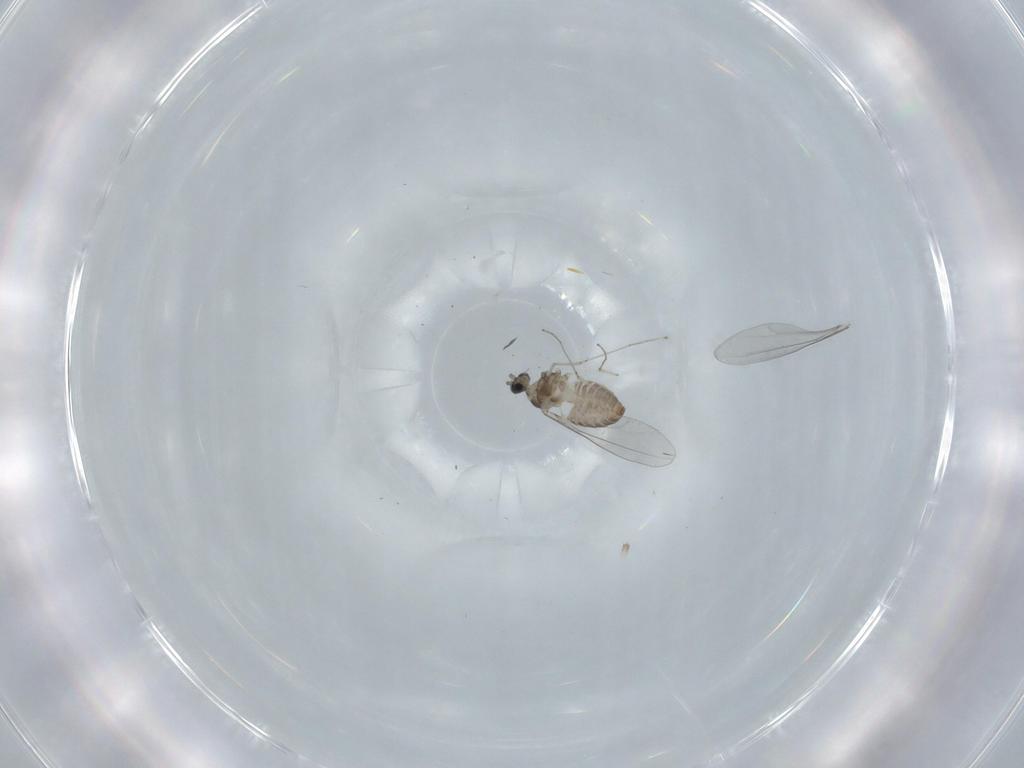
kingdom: Animalia
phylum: Arthropoda
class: Insecta
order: Diptera
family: Cecidomyiidae
